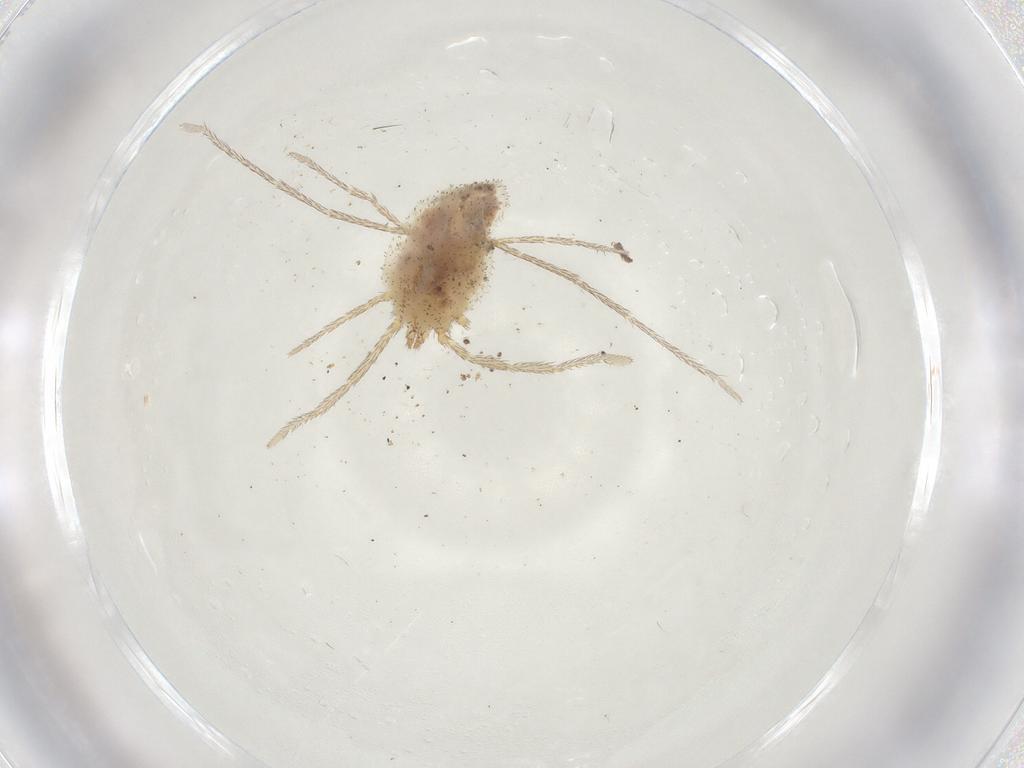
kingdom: Animalia
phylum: Arthropoda
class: Arachnida
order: Trombidiformes
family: Erythraeidae
